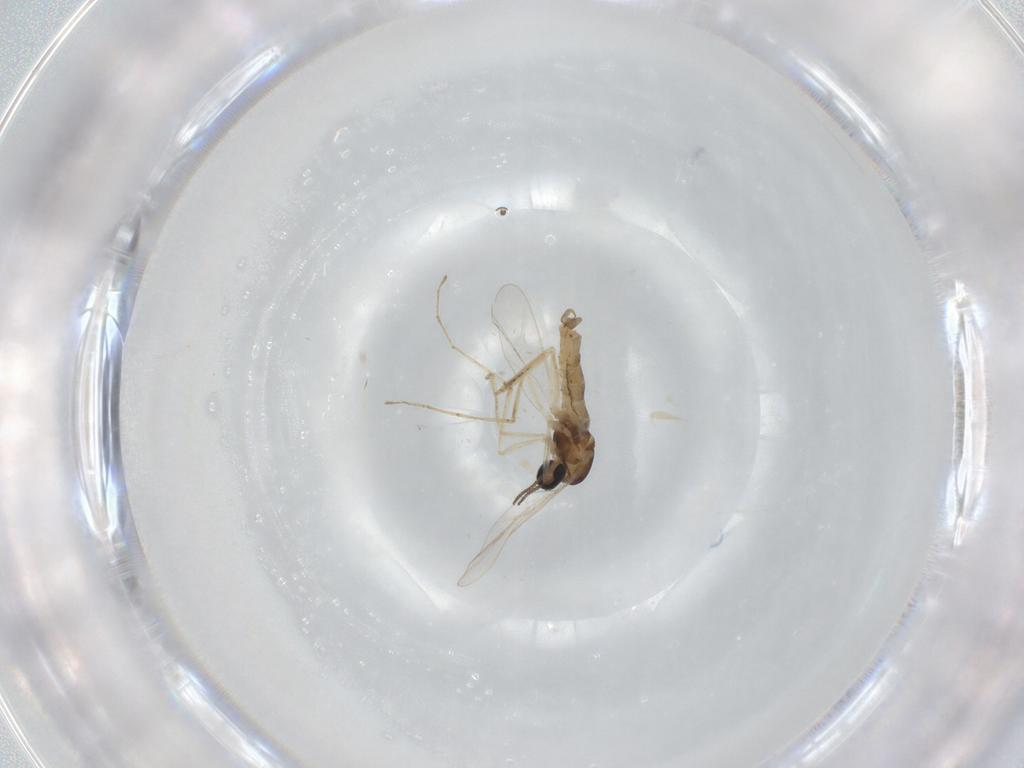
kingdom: Animalia
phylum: Arthropoda
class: Insecta
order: Diptera
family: Cecidomyiidae
